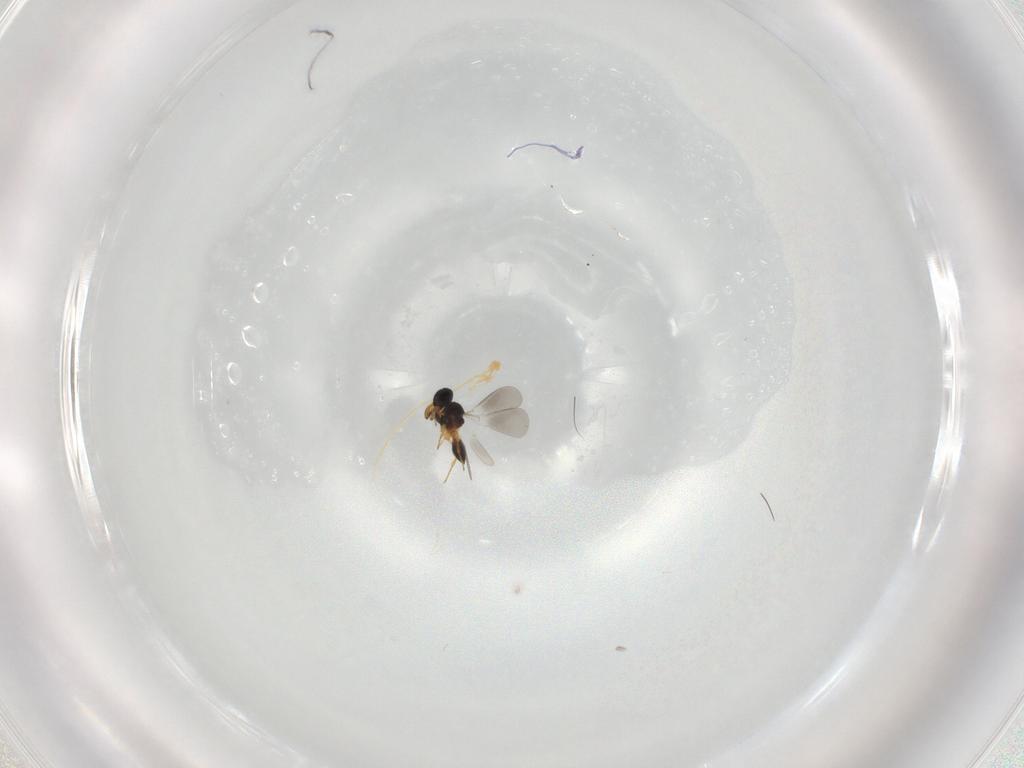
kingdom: Animalia
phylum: Arthropoda
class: Insecta
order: Hymenoptera
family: Platygastridae
